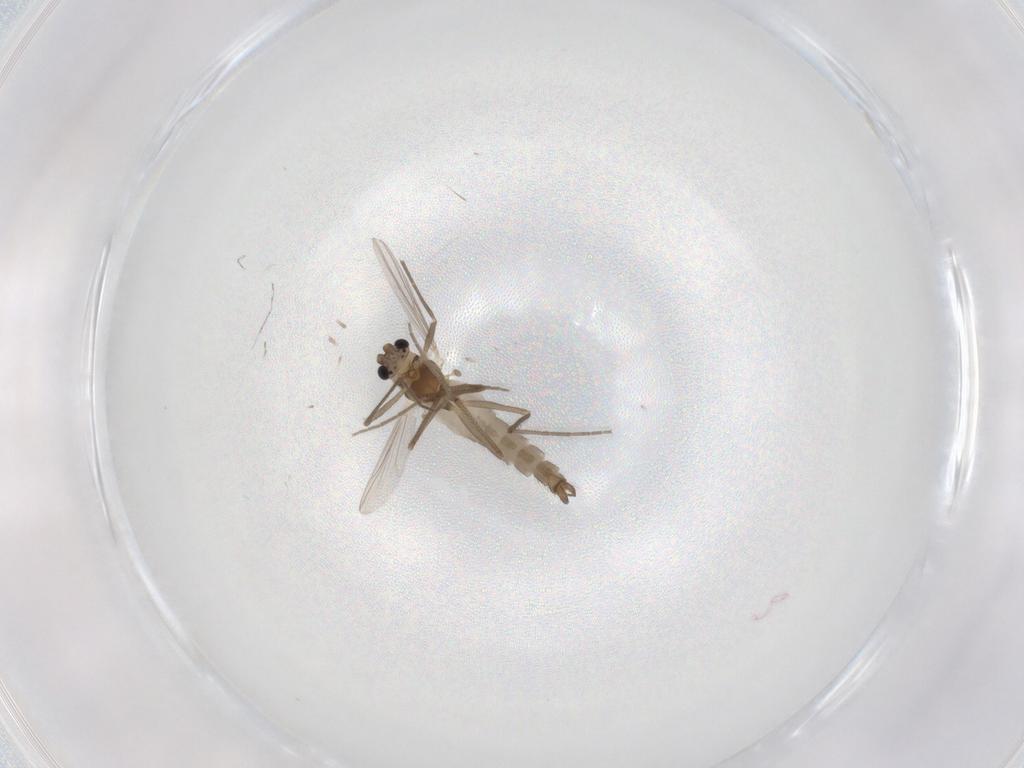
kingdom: Animalia
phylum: Arthropoda
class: Insecta
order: Diptera
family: Chironomidae
